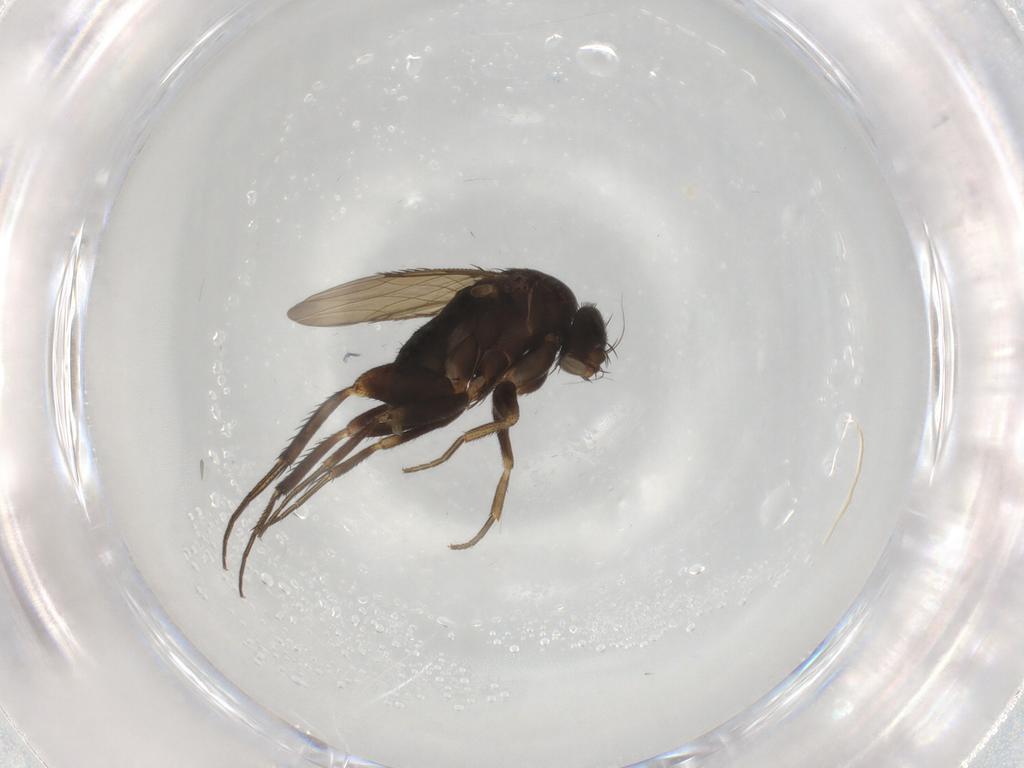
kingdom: Animalia
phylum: Arthropoda
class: Insecta
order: Diptera
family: Phoridae
